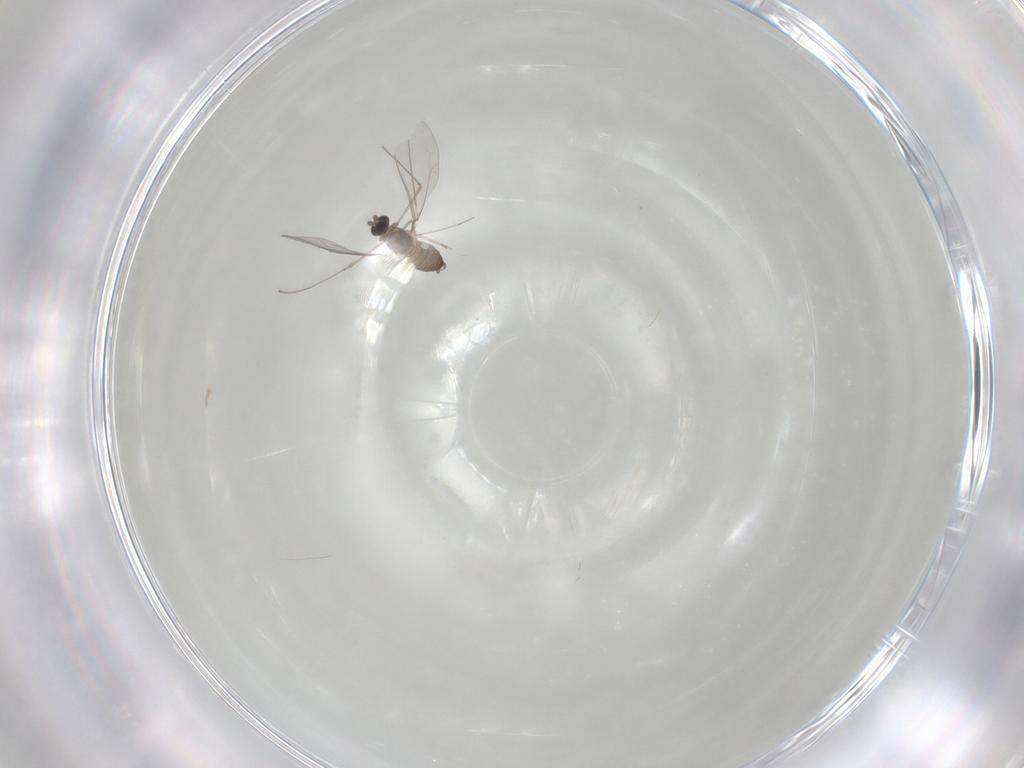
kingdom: Animalia
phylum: Arthropoda
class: Insecta
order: Diptera
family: Cecidomyiidae
